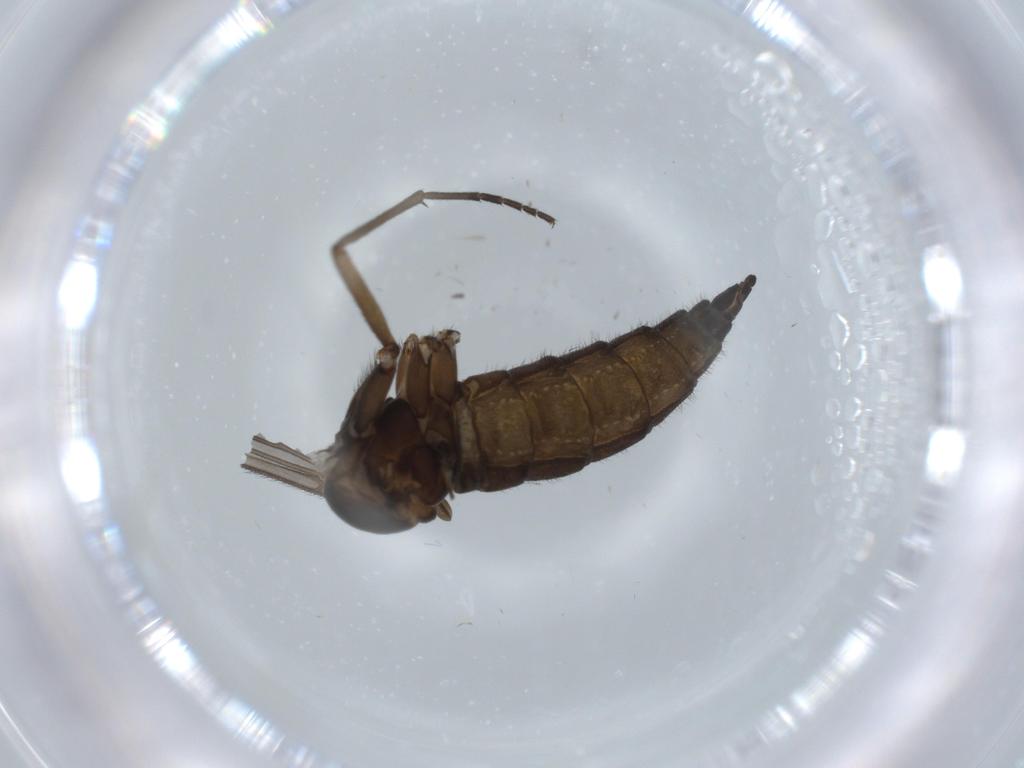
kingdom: Animalia
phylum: Arthropoda
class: Insecta
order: Diptera
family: Sciaridae
